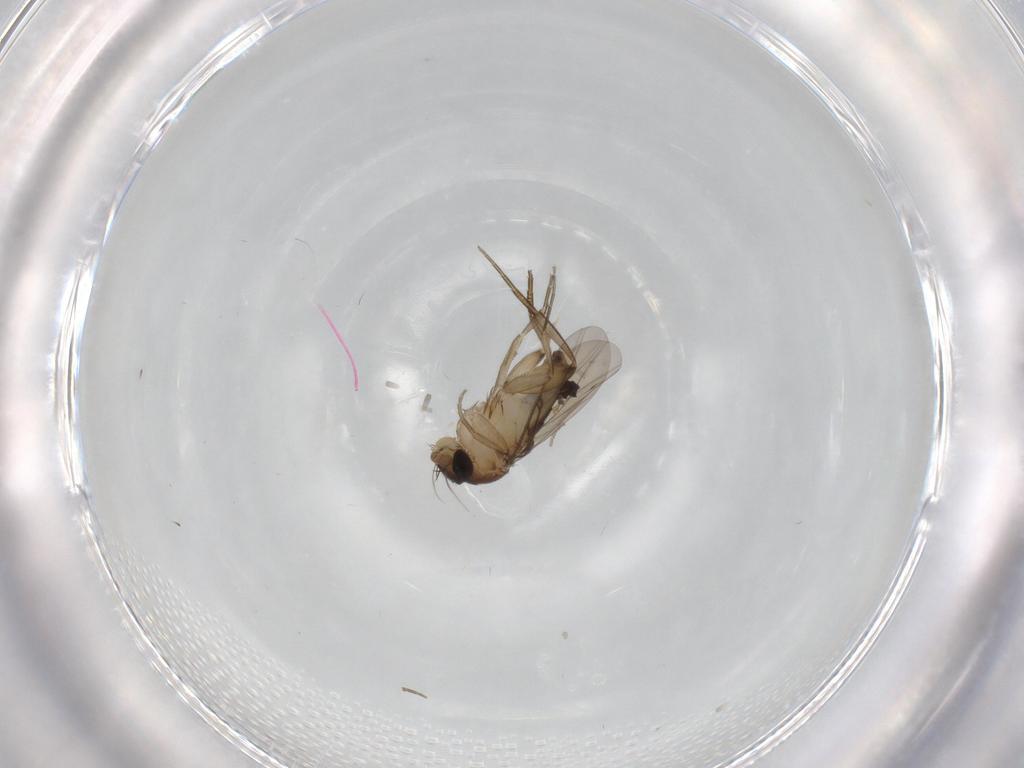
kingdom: Animalia
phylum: Arthropoda
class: Insecta
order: Diptera
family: Phoridae
